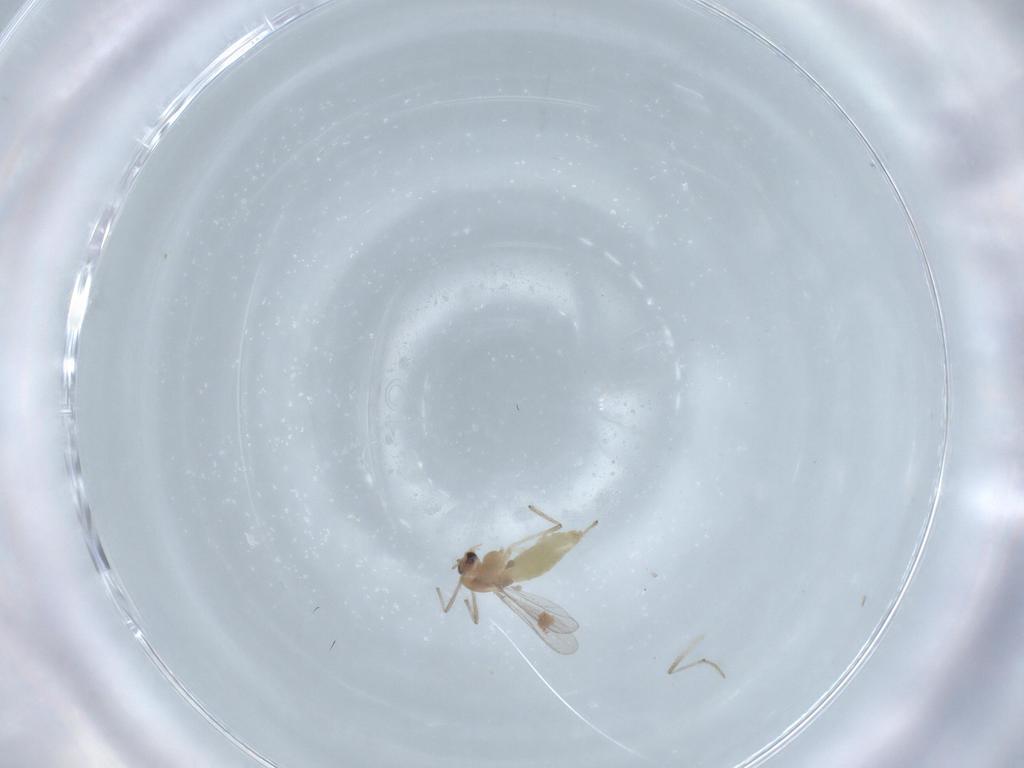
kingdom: Animalia
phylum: Arthropoda
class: Insecta
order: Diptera
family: Chironomidae
